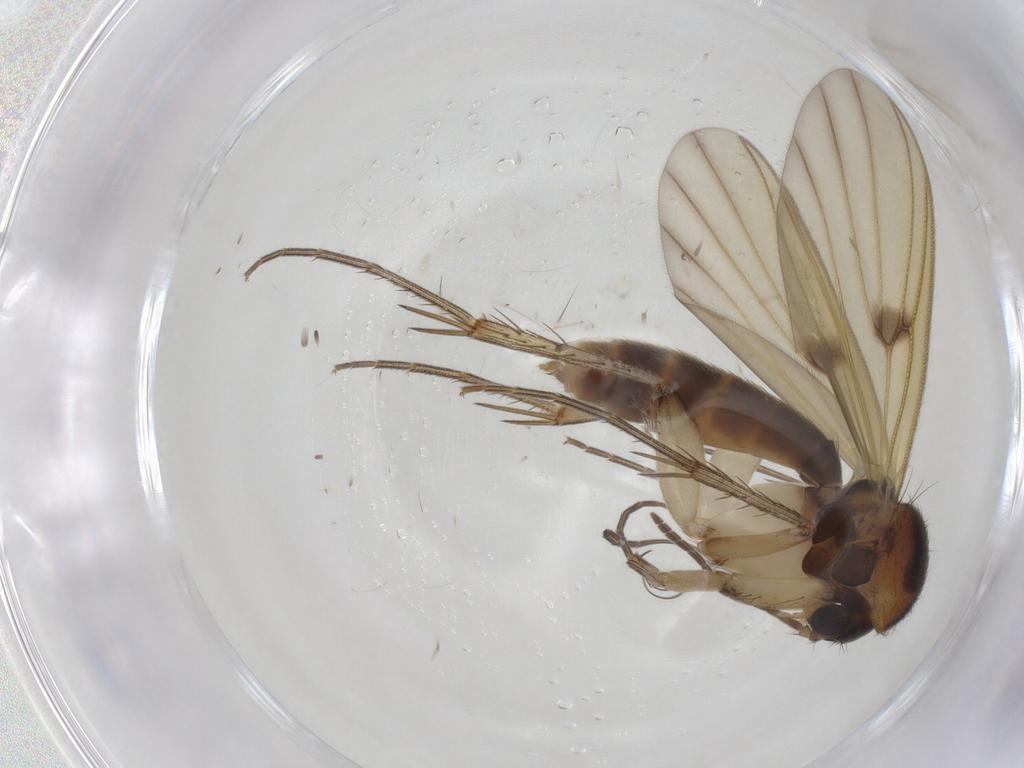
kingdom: Animalia
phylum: Arthropoda
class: Insecta
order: Diptera
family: Mycetophilidae
